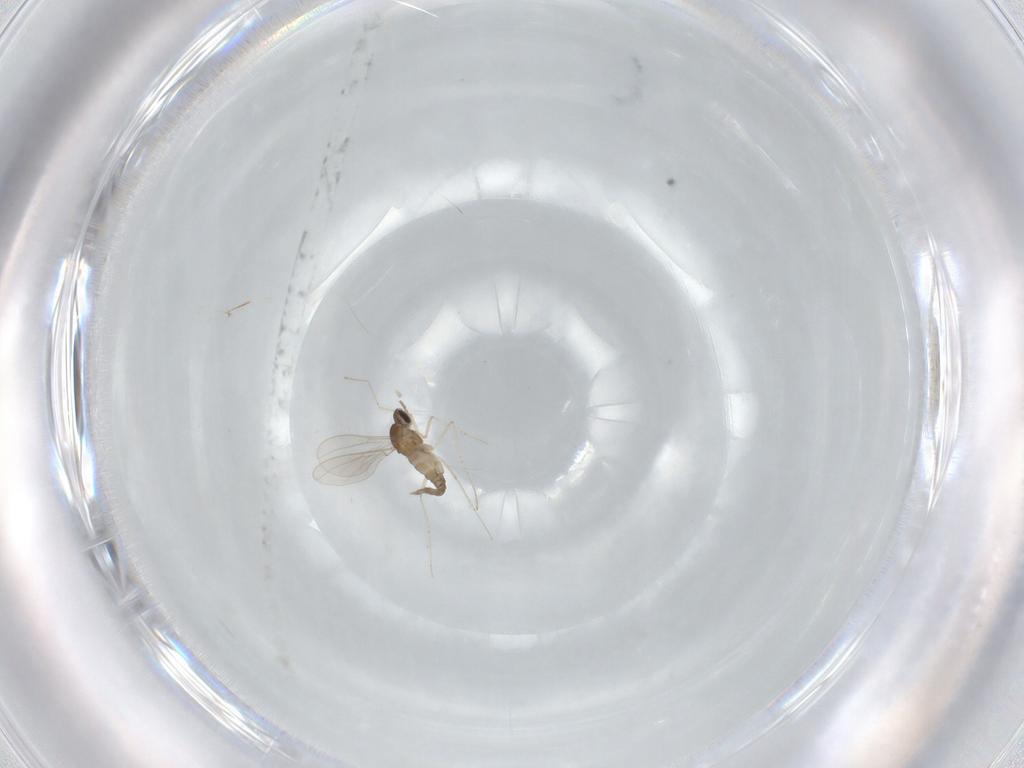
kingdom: Animalia
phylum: Arthropoda
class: Insecta
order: Diptera
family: Cecidomyiidae
